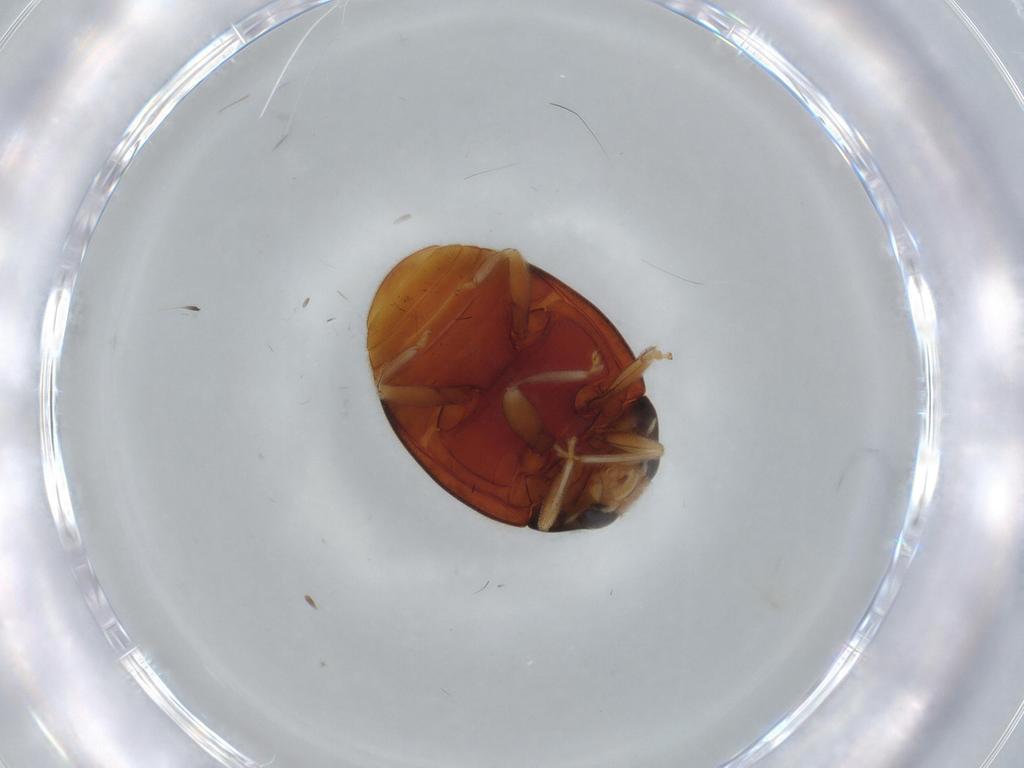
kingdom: Animalia
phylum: Arthropoda
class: Insecta
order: Coleoptera
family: Coccinellidae
